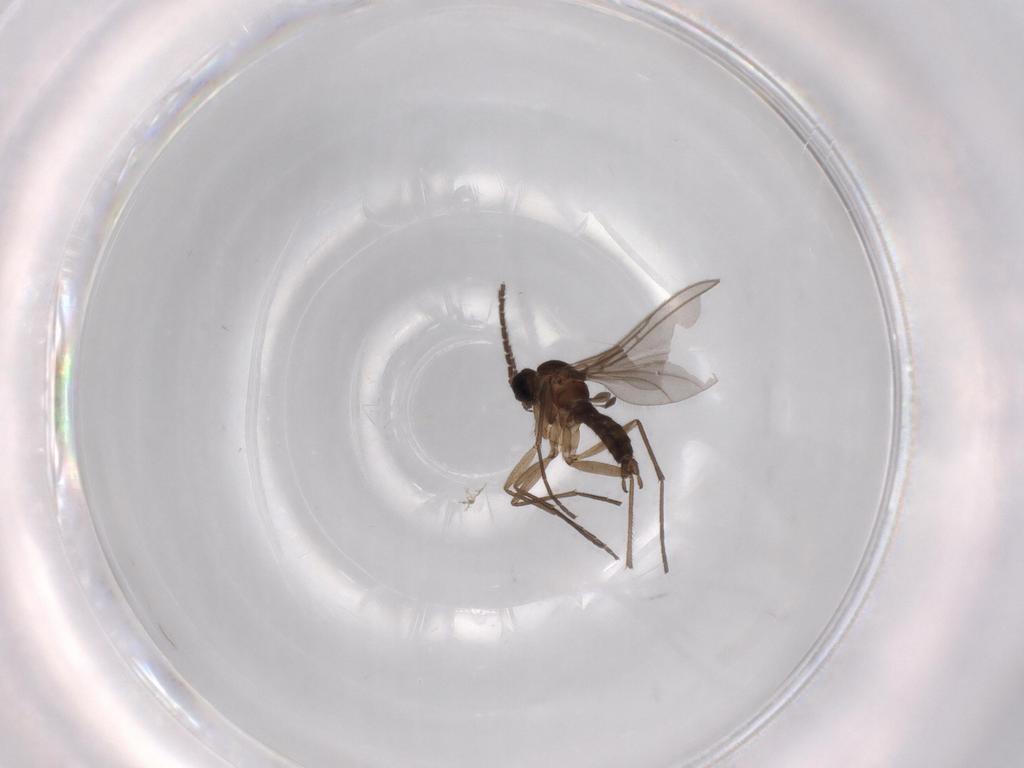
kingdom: Animalia
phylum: Arthropoda
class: Insecta
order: Diptera
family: Sciaridae
